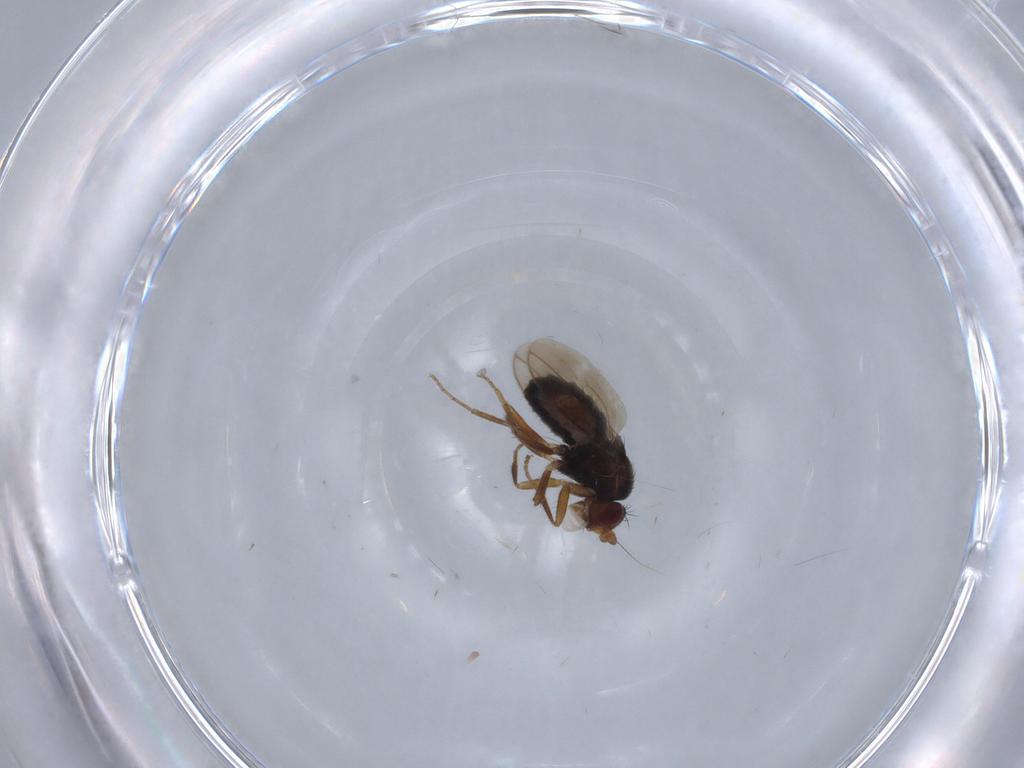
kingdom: Animalia
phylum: Arthropoda
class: Insecta
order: Diptera
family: Sphaeroceridae
